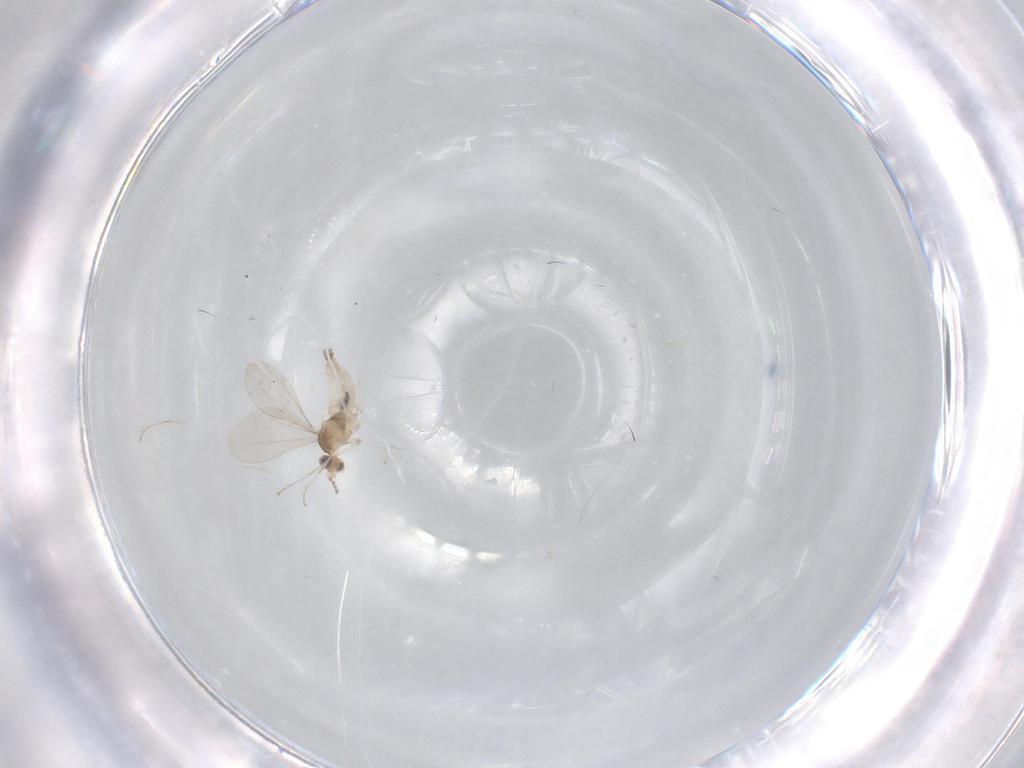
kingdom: Animalia
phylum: Arthropoda
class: Insecta
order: Diptera
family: Cecidomyiidae
